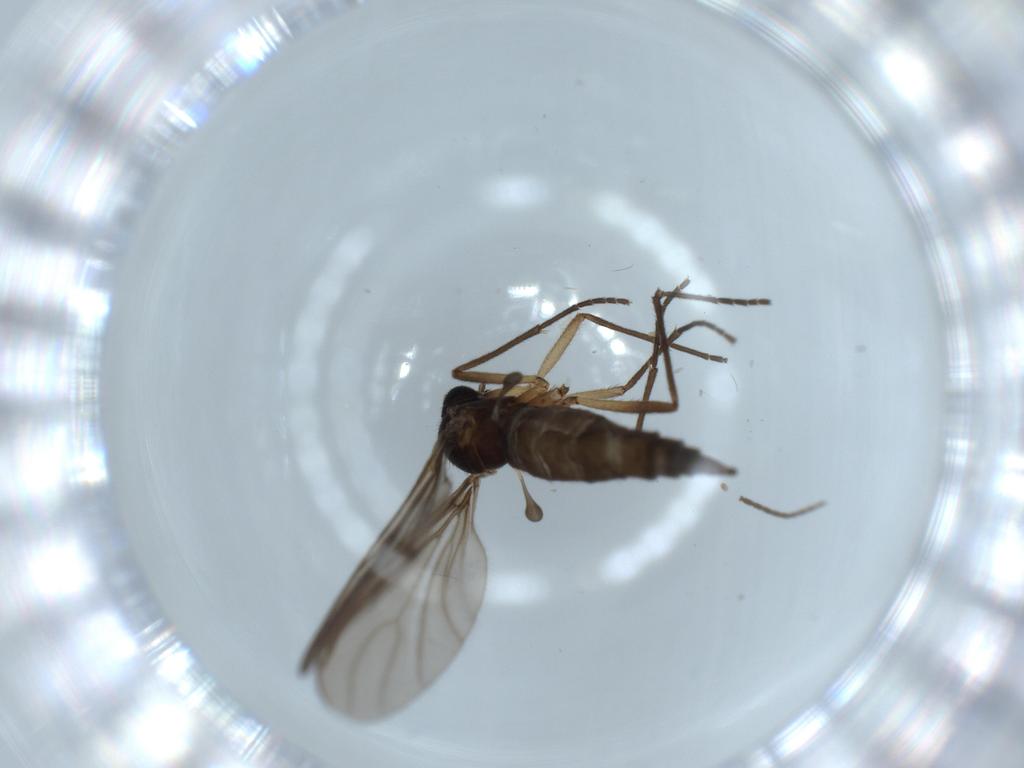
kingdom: Animalia
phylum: Arthropoda
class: Insecta
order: Diptera
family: Sciaridae
